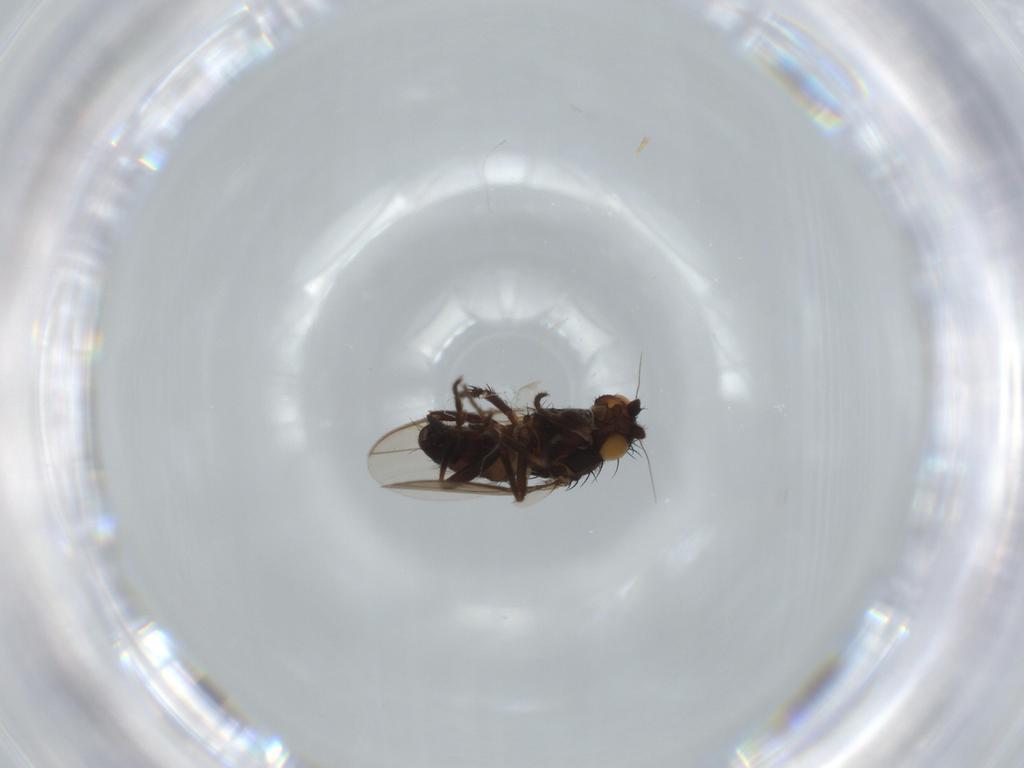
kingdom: Animalia
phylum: Arthropoda
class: Insecta
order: Diptera
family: Sphaeroceridae
